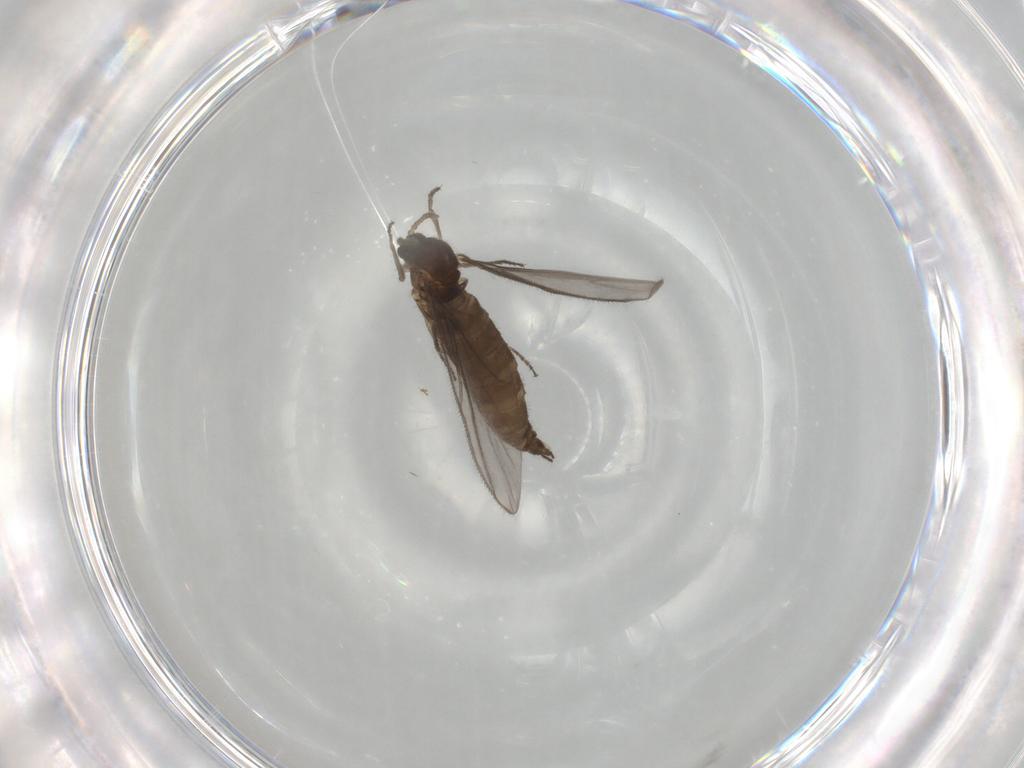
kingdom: Animalia
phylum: Arthropoda
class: Insecta
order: Diptera
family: Sciaridae
